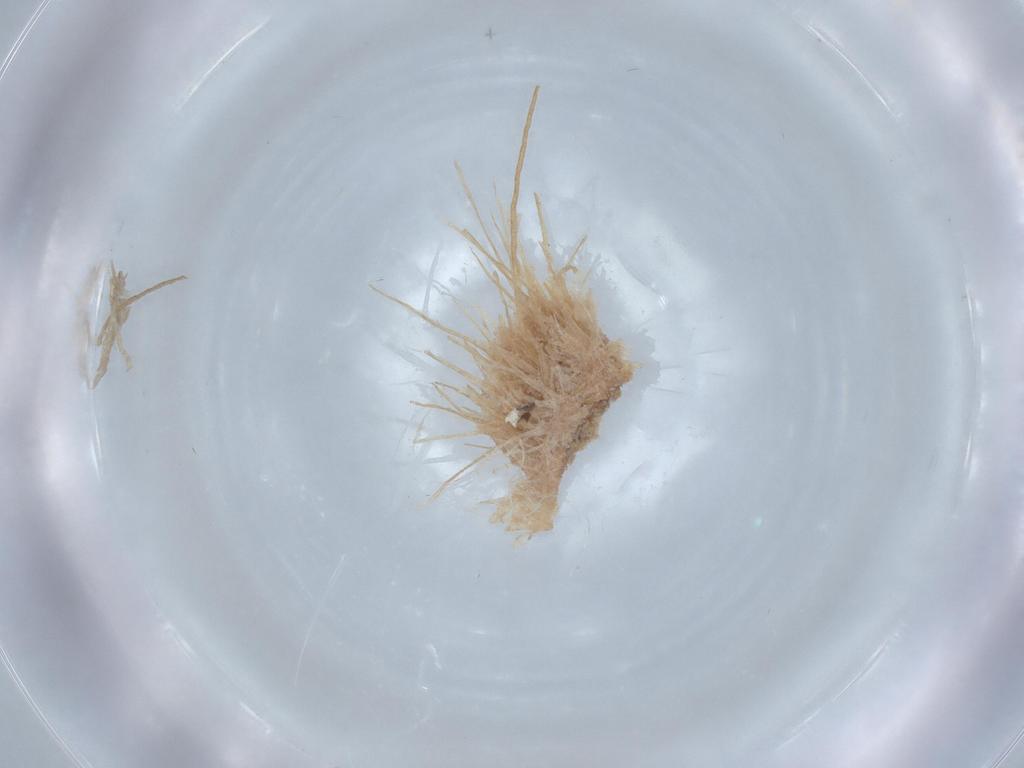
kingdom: Animalia
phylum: Arthropoda
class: Insecta
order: Diptera
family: Chironomidae
